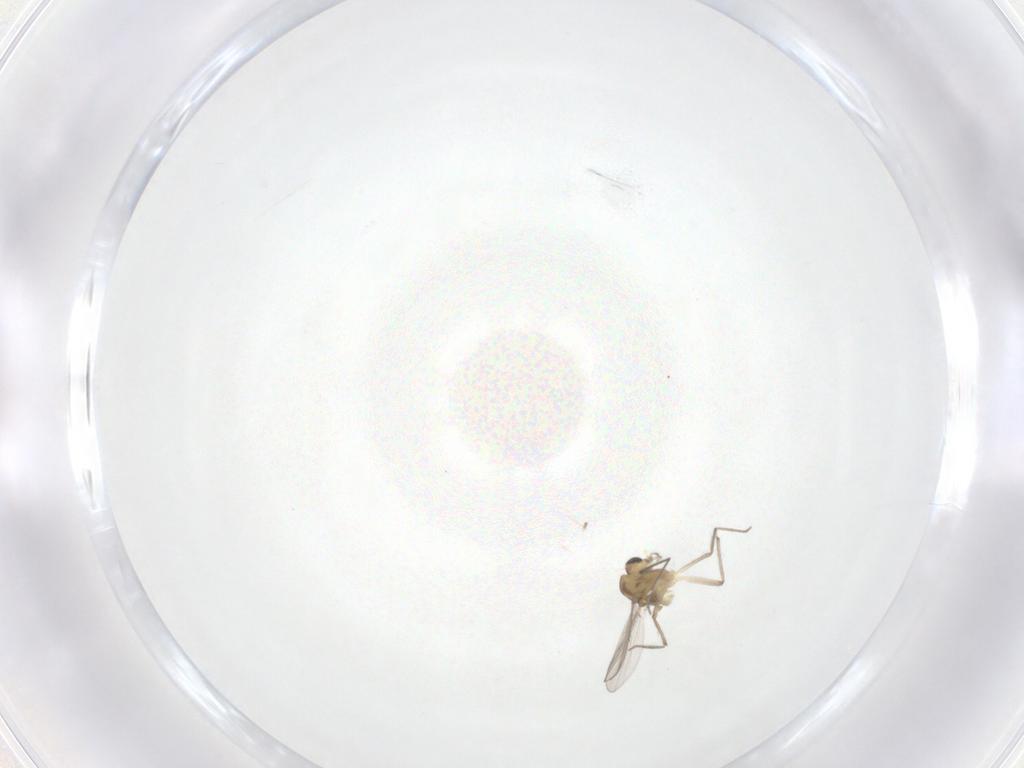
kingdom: Animalia
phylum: Arthropoda
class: Insecta
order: Diptera
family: Chironomidae
